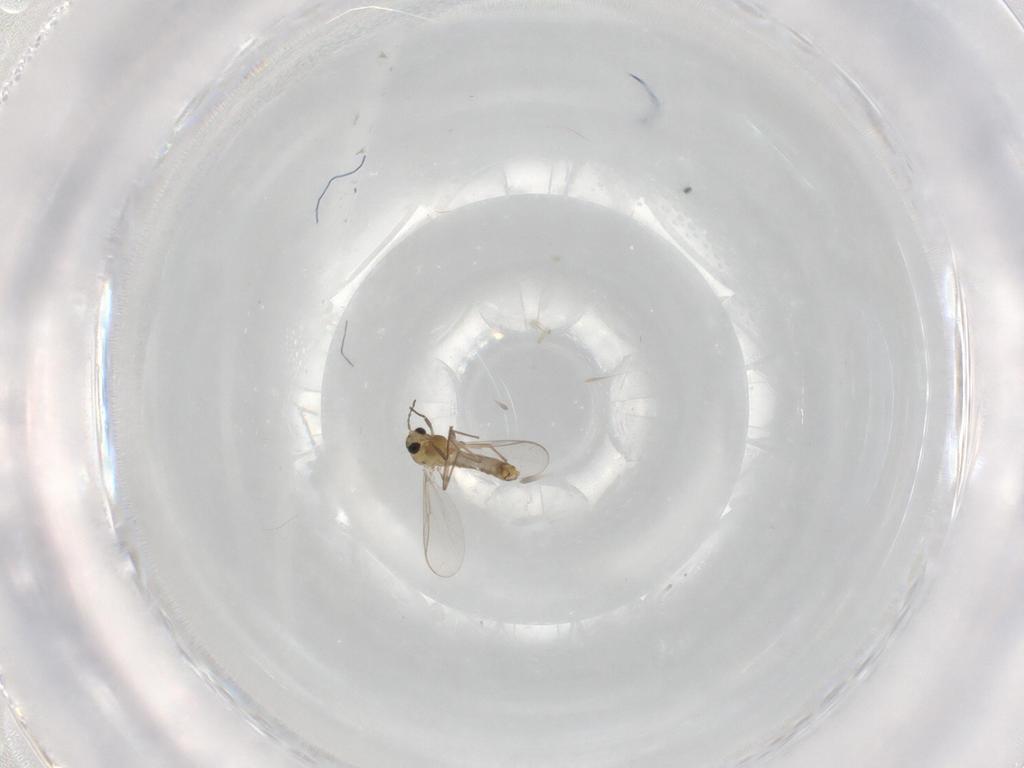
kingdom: Animalia
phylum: Arthropoda
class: Insecta
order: Diptera
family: Chironomidae
